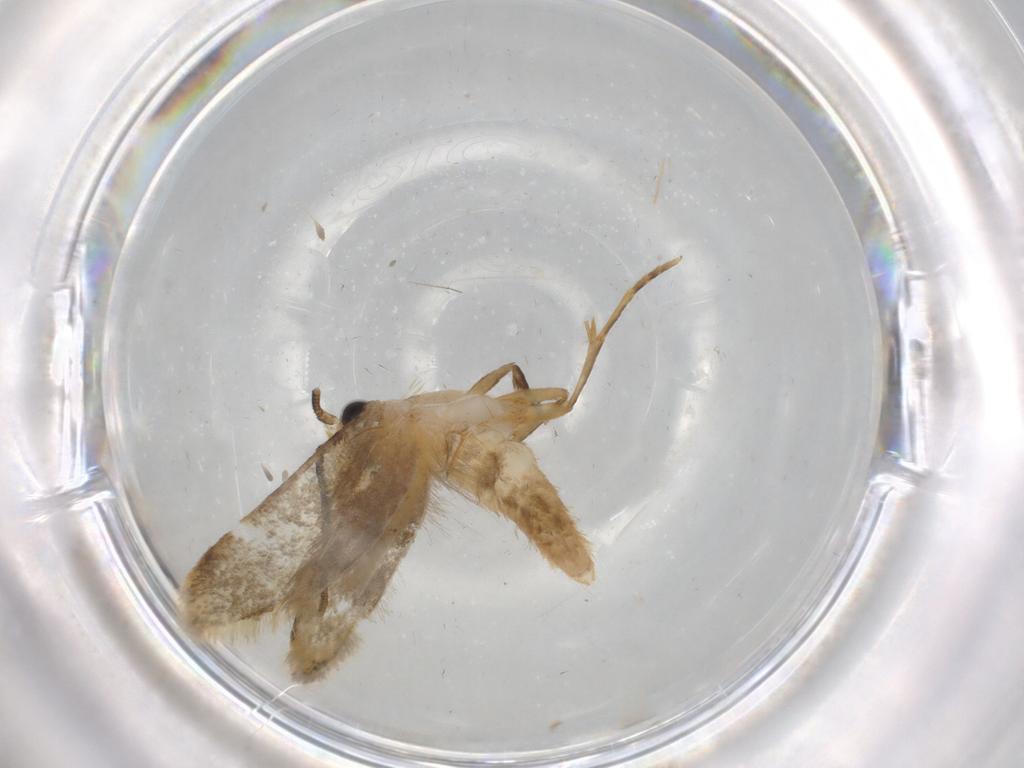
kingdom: Animalia
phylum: Arthropoda
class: Insecta
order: Lepidoptera
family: Tineidae
